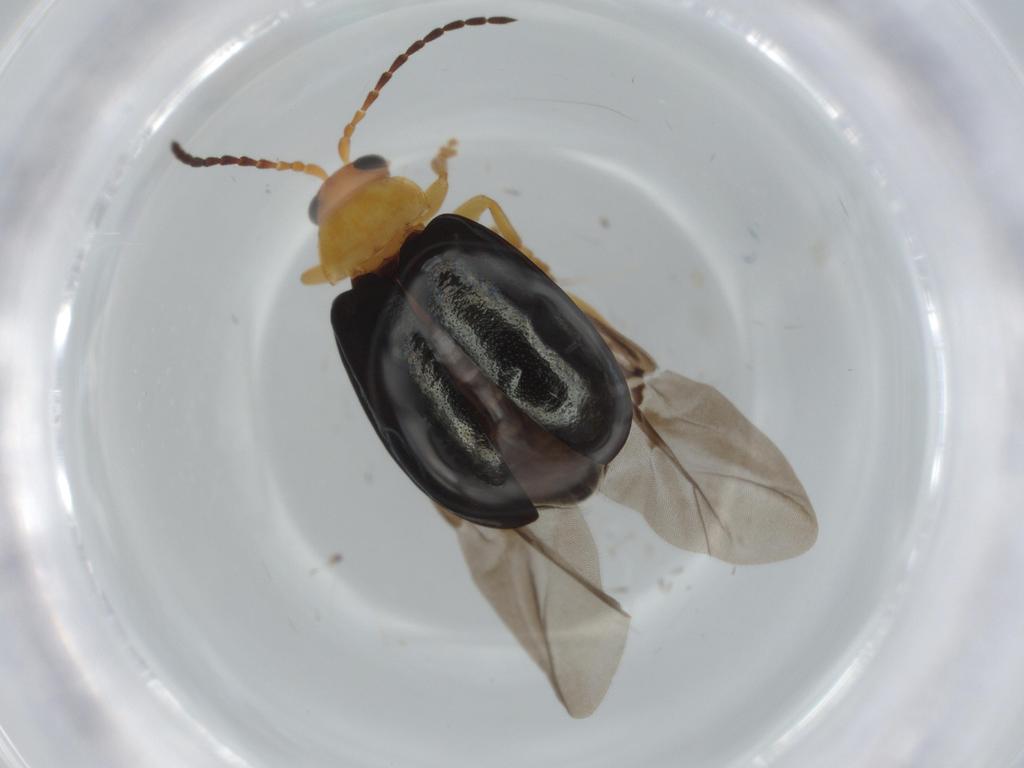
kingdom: Animalia
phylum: Arthropoda
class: Insecta
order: Coleoptera
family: Chrysomelidae
